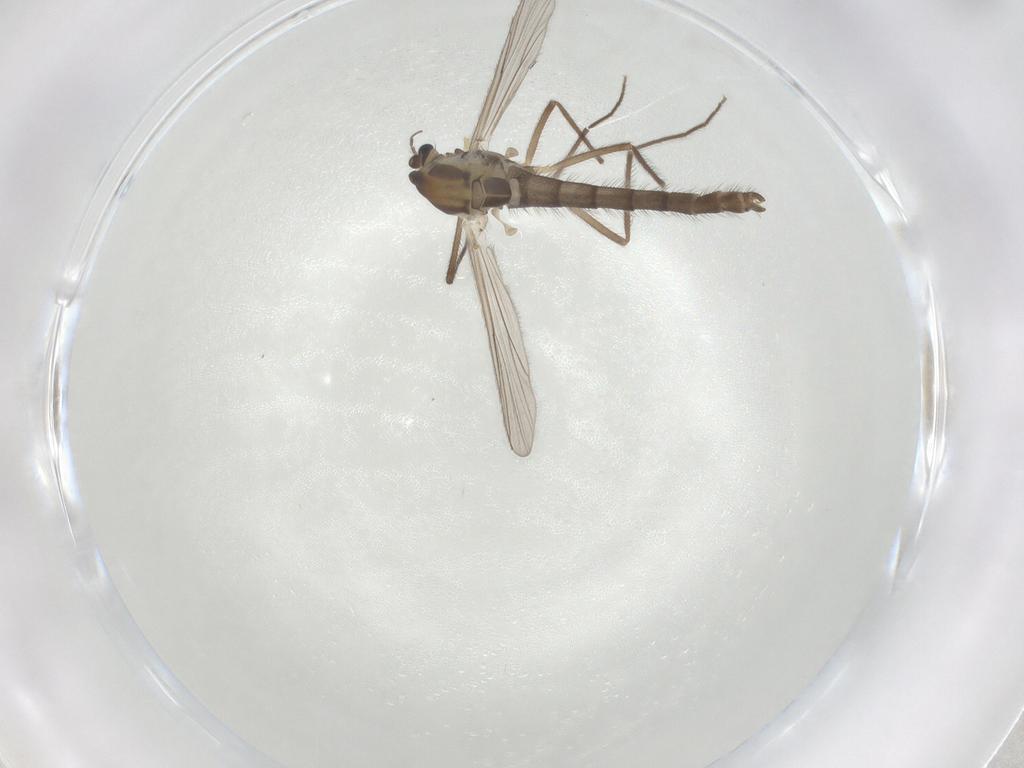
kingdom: Animalia
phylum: Arthropoda
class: Insecta
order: Diptera
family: Chironomidae
